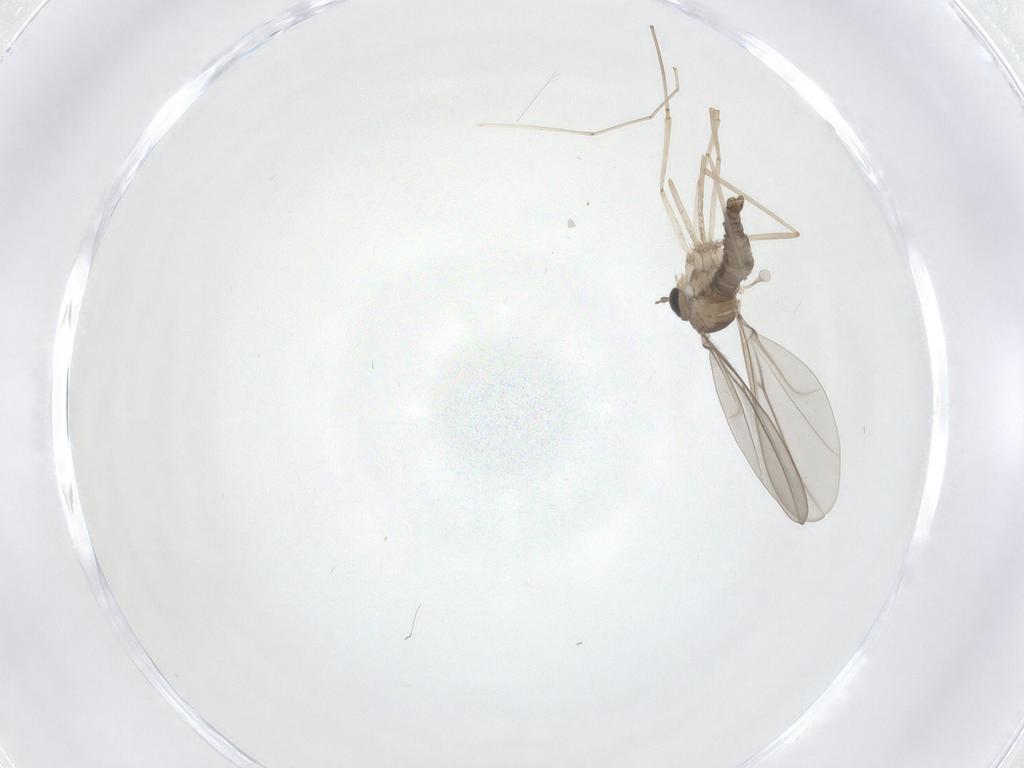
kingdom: Animalia
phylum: Arthropoda
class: Insecta
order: Diptera
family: Cecidomyiidae
